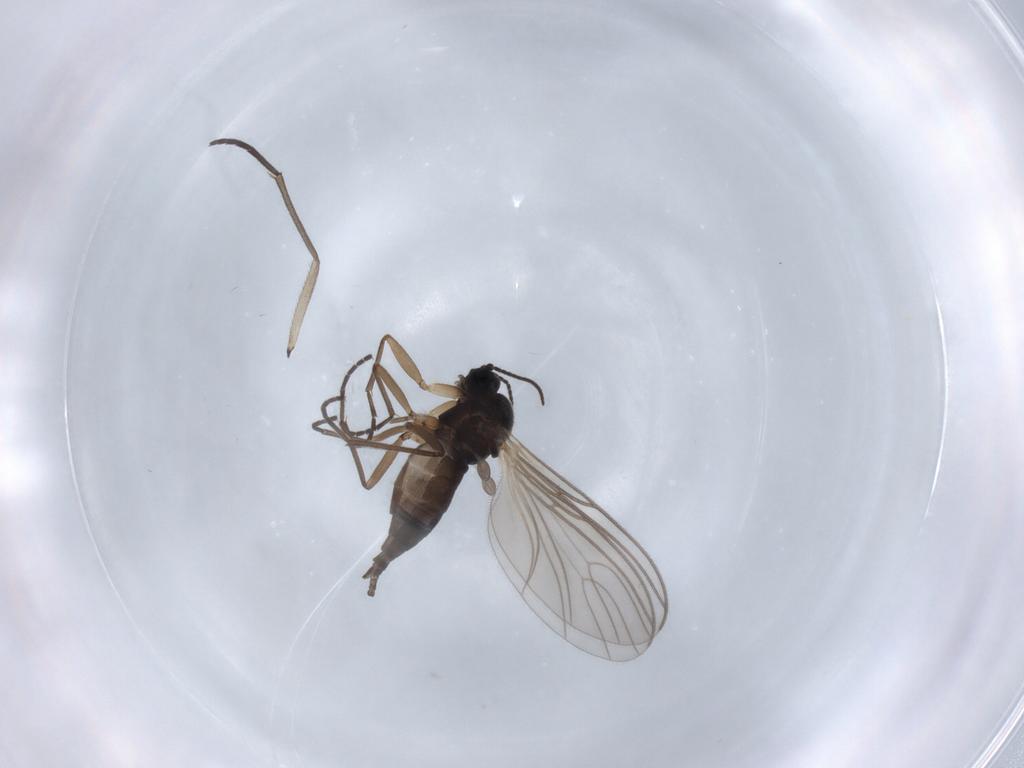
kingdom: Animalia
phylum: Arthropoda
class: Insecta
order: Diptera
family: Sciaridae
